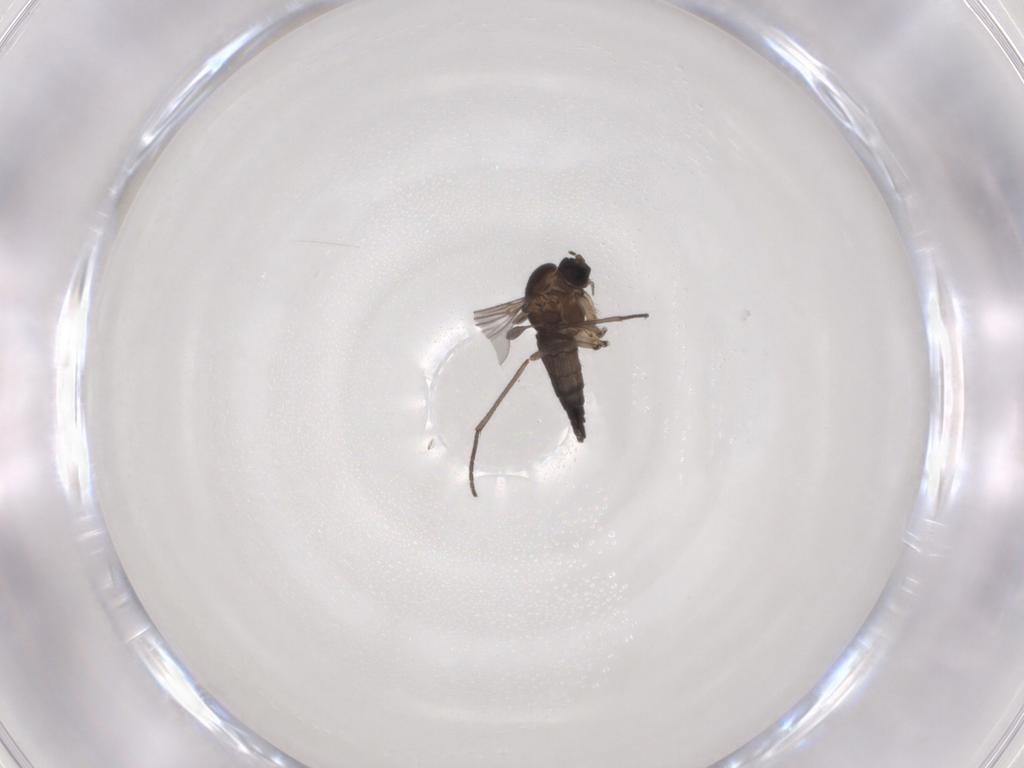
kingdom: Animalia
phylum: Arthropoda
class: Insecta
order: Diptera
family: Sciaridae
